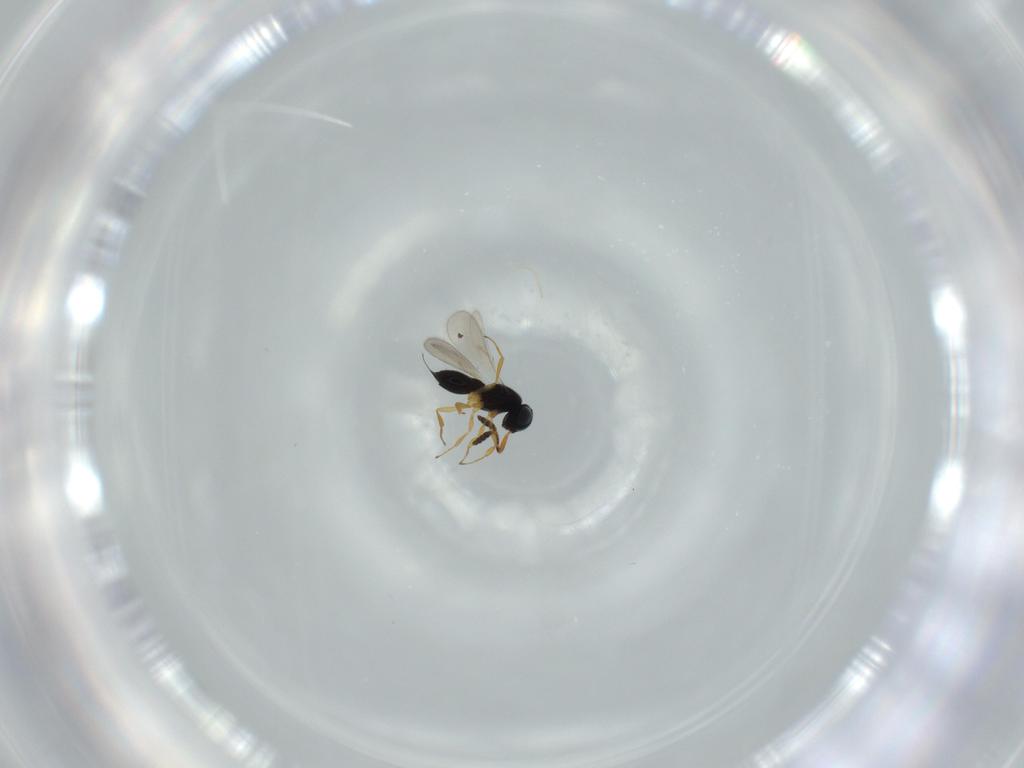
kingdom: Animalia
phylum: Arthropoda
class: Insecta
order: Hymenoptera
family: Scelionidae
